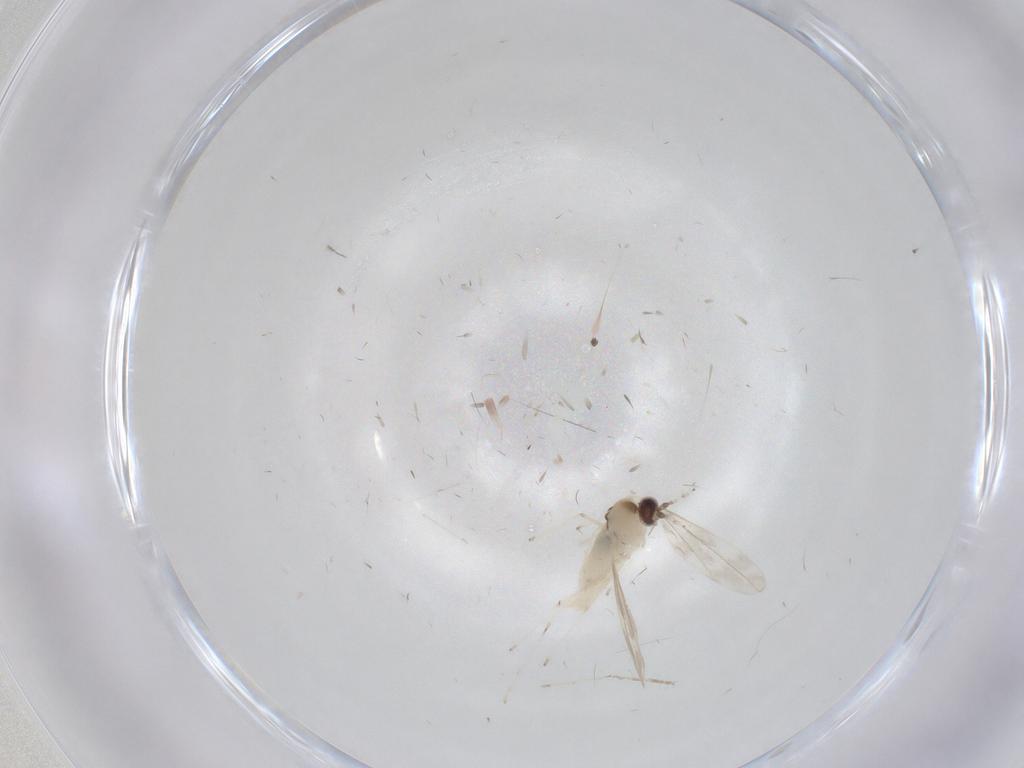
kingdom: Animalia
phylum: Arthropoda
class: Insecta
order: Diptera
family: Cecidomyiidae
